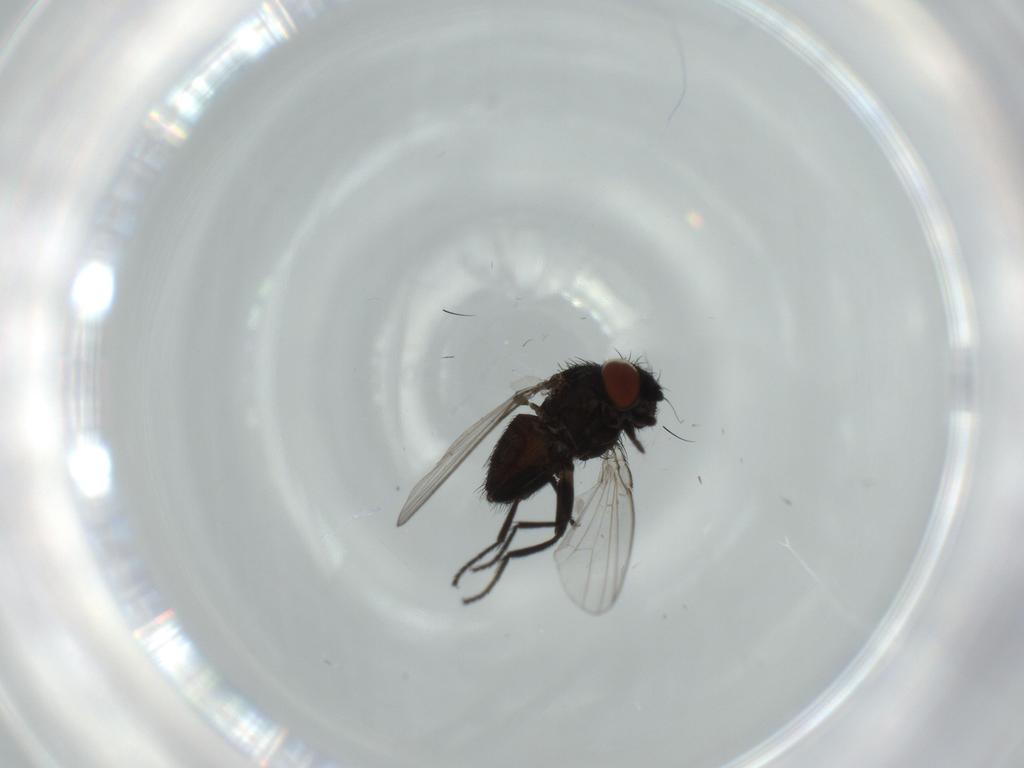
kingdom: Animalia
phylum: Arthropoda
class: Insecta
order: Diptera
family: Milichiidae
